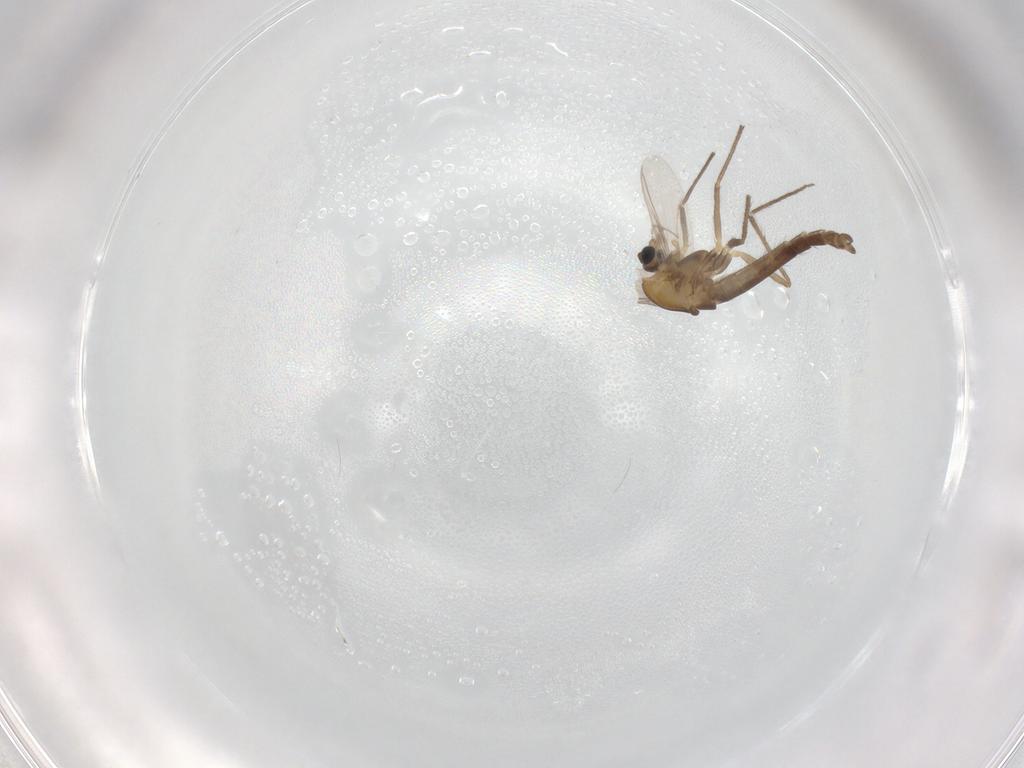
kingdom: Animalia
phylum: Arthropoda
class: Insecta
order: Diptera
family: Chironomidae
